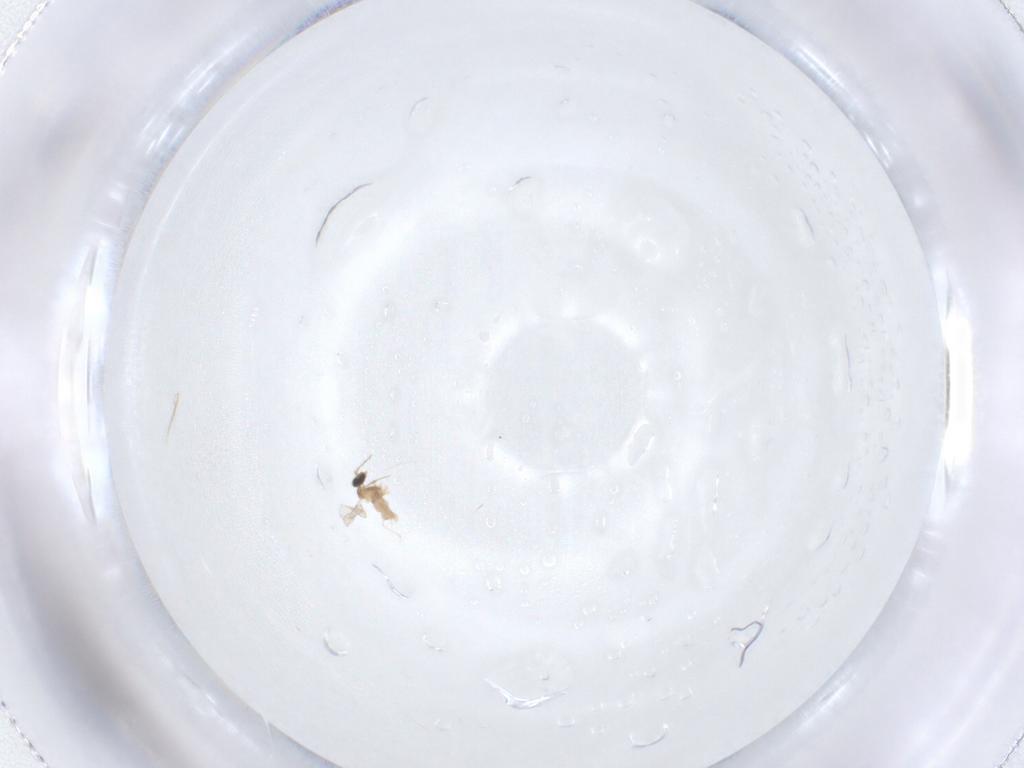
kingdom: Animalia
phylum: Arthropoda
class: Insecta
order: Diptera
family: Cecidomyiidae
